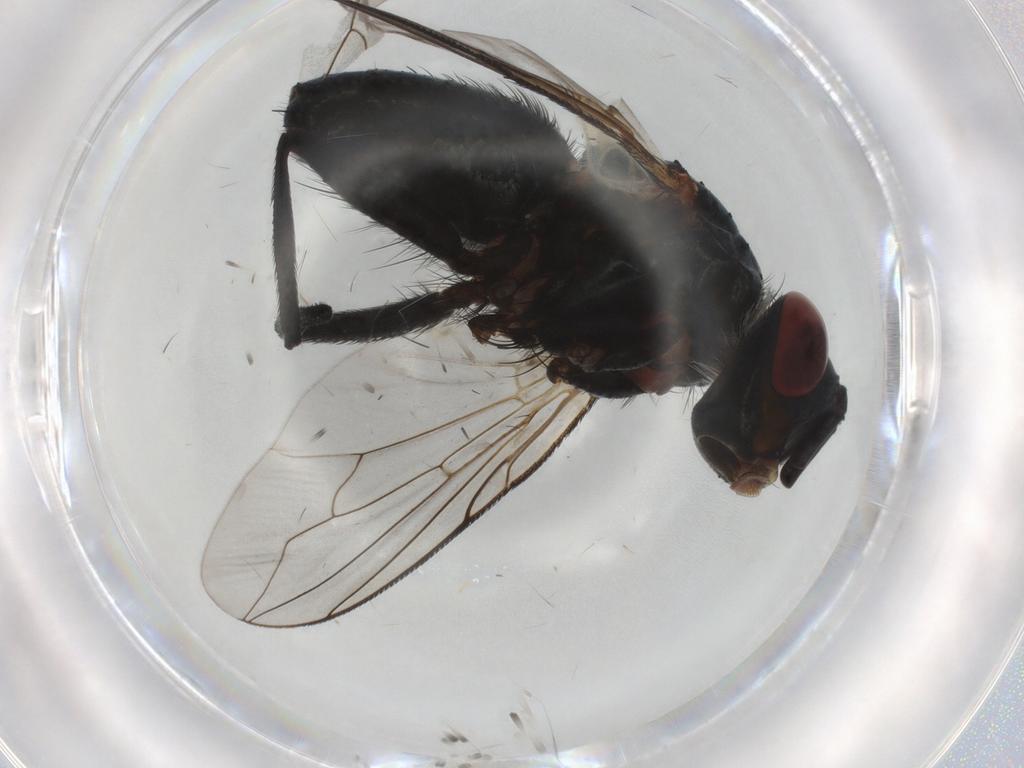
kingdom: Animalia
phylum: Arthropoda
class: Insecta
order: Diptera
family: Tachinidae
